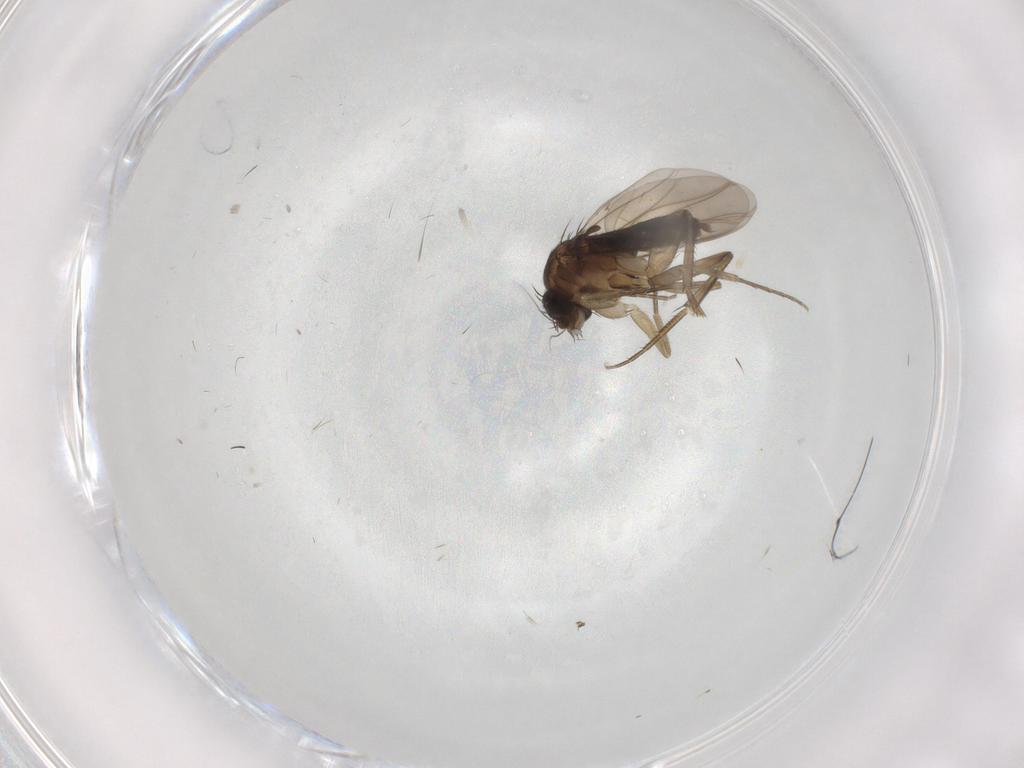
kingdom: Animalia
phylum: Arthropoda
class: Insecta
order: Diptera
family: Phoridae
